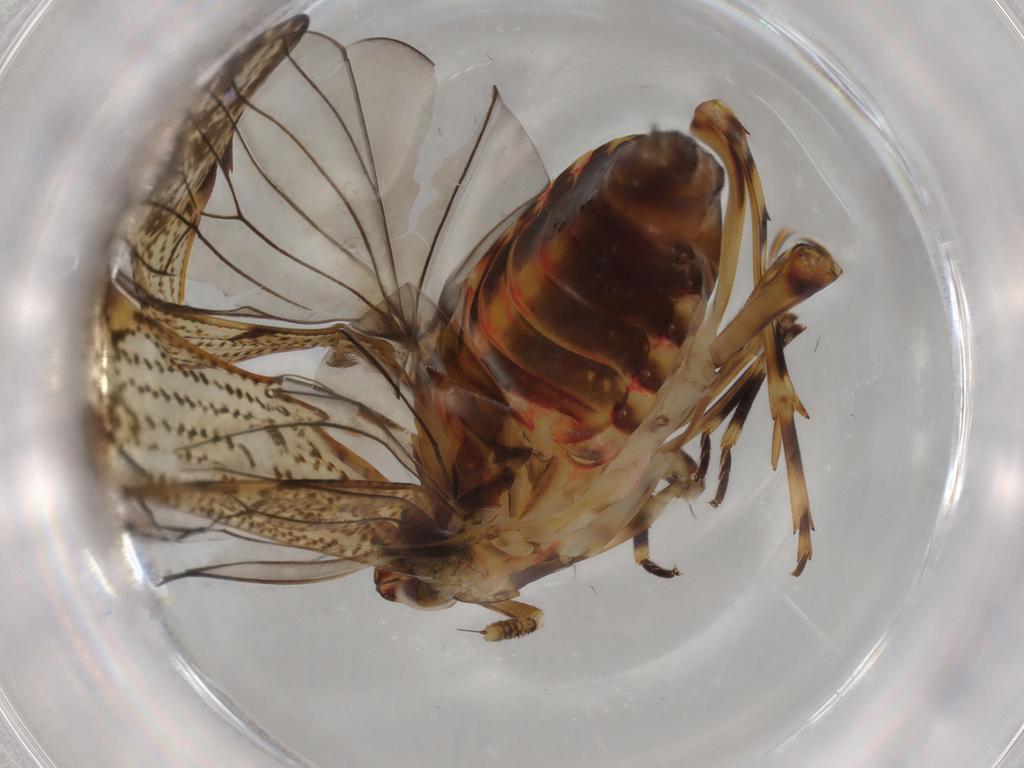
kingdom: Animalia
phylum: Arthropoda
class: Insecta
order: Hemiptera
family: Delphacidae
